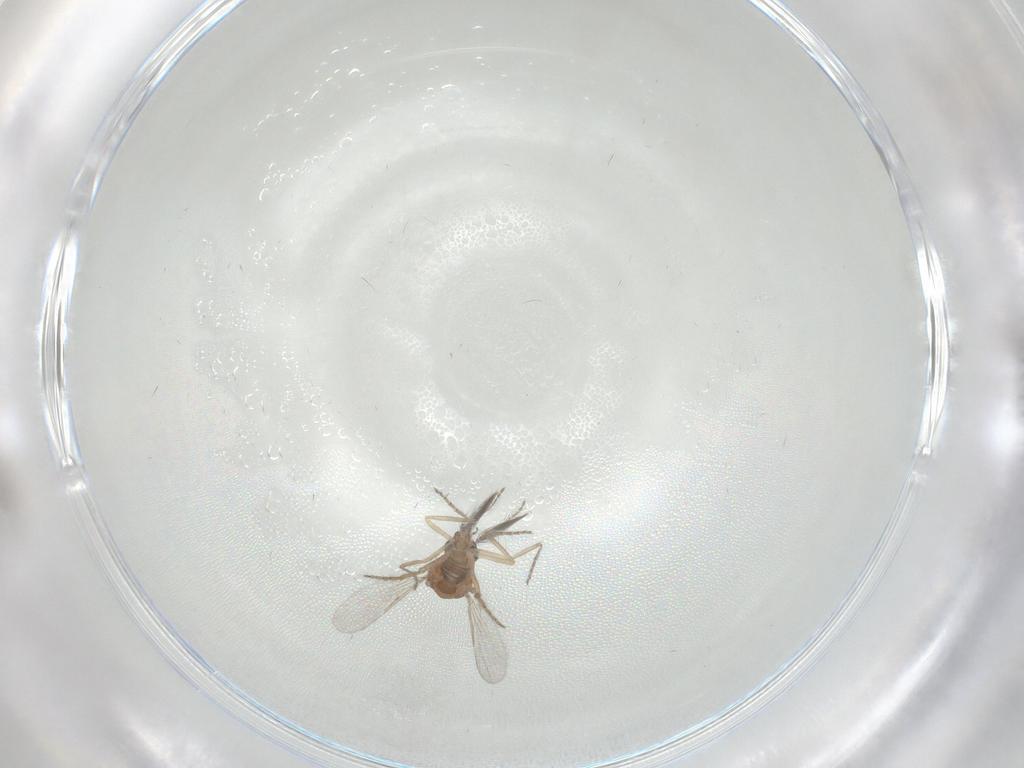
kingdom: Animalia
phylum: Arthropoda
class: Insecta
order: Diptera
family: Ceratopogonidae
